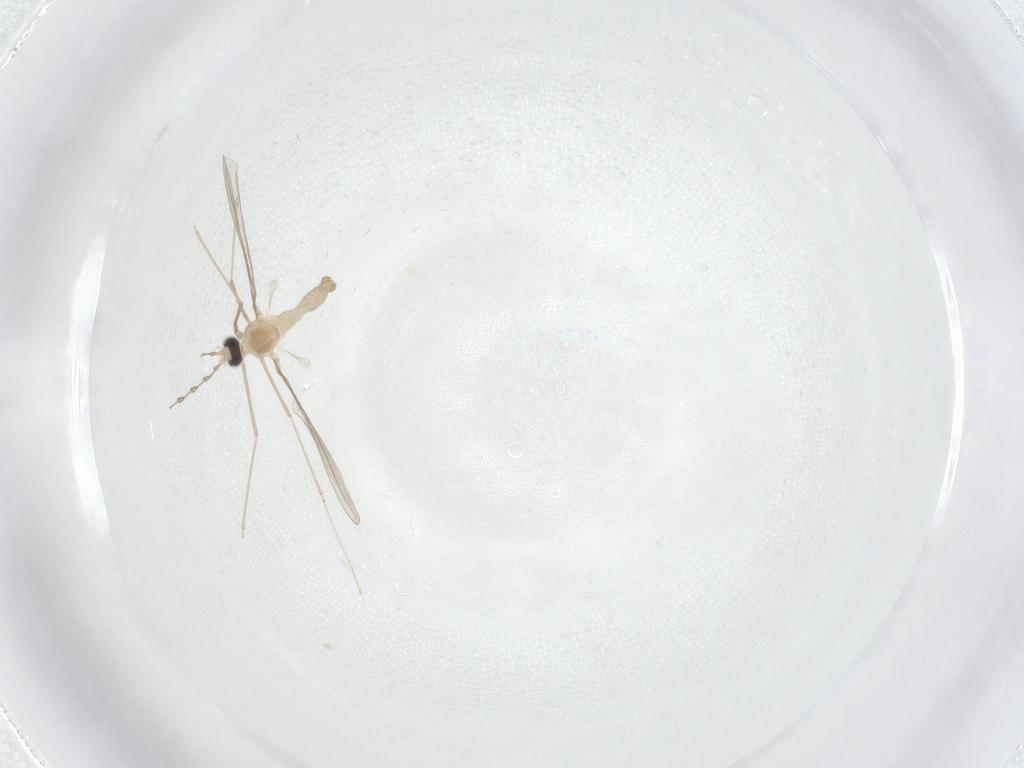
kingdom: Animalia
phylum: Arthropoda
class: Insecta
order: Diptera
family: Cecidomyiidae
